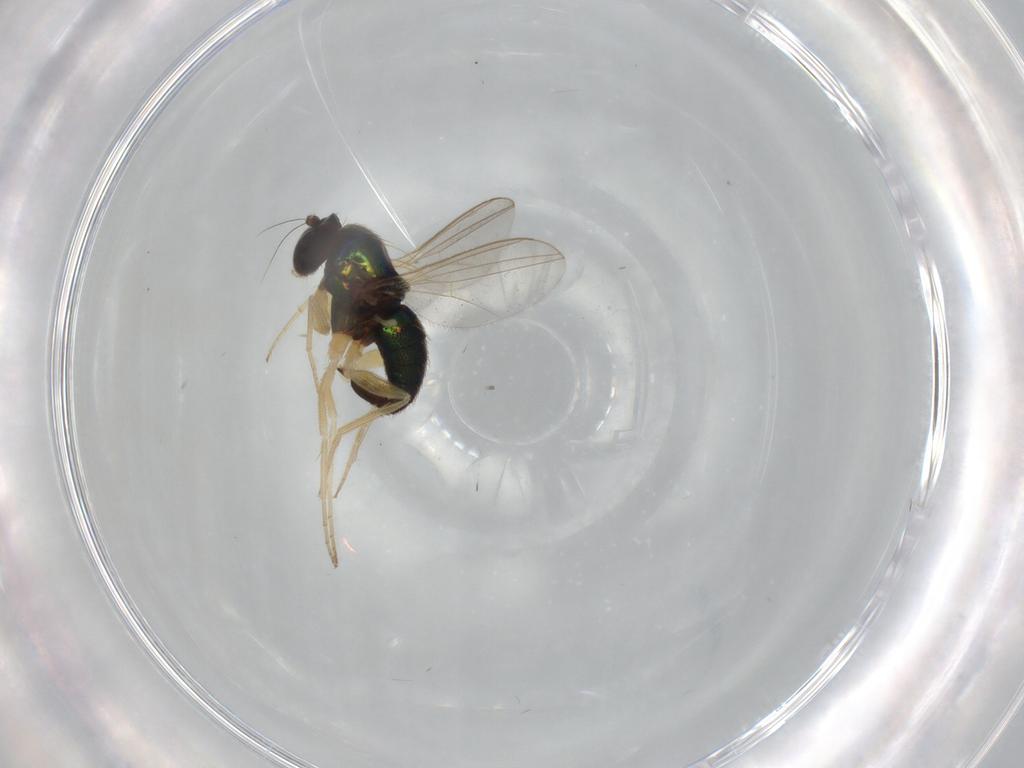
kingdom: Animalia
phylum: Arthropoda
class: Insecta
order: Diptera
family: Dolichopodidae
